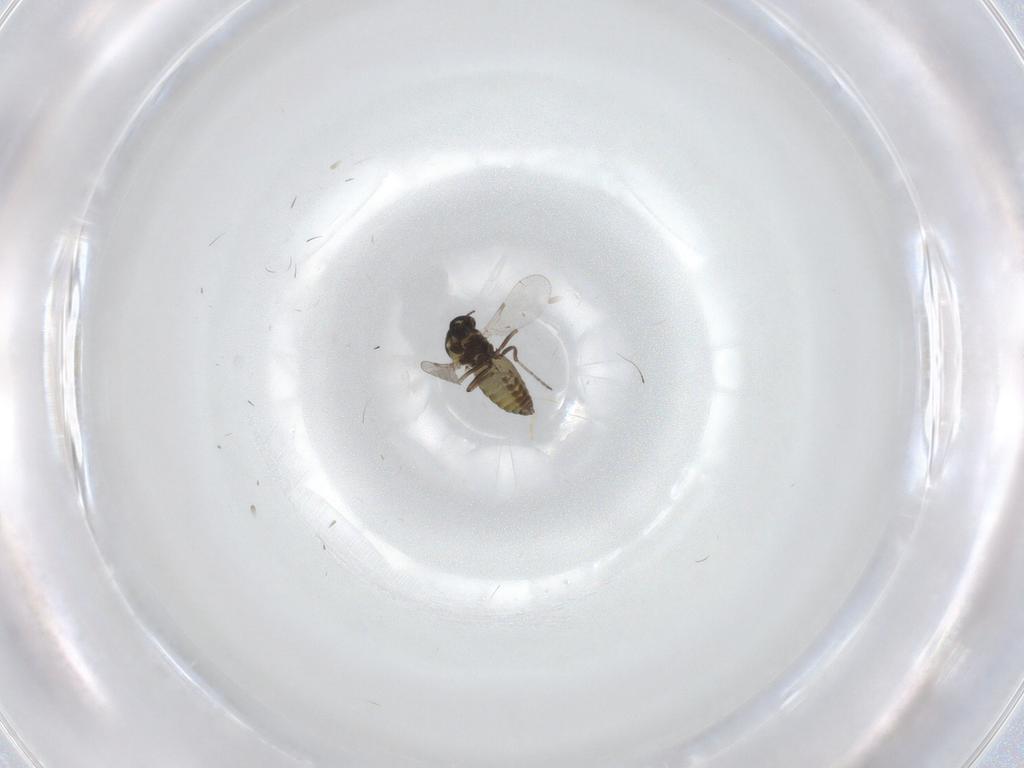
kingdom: Animalia
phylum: Arthropoda
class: Insecta
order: Diptera
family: Ceratopogonidae
